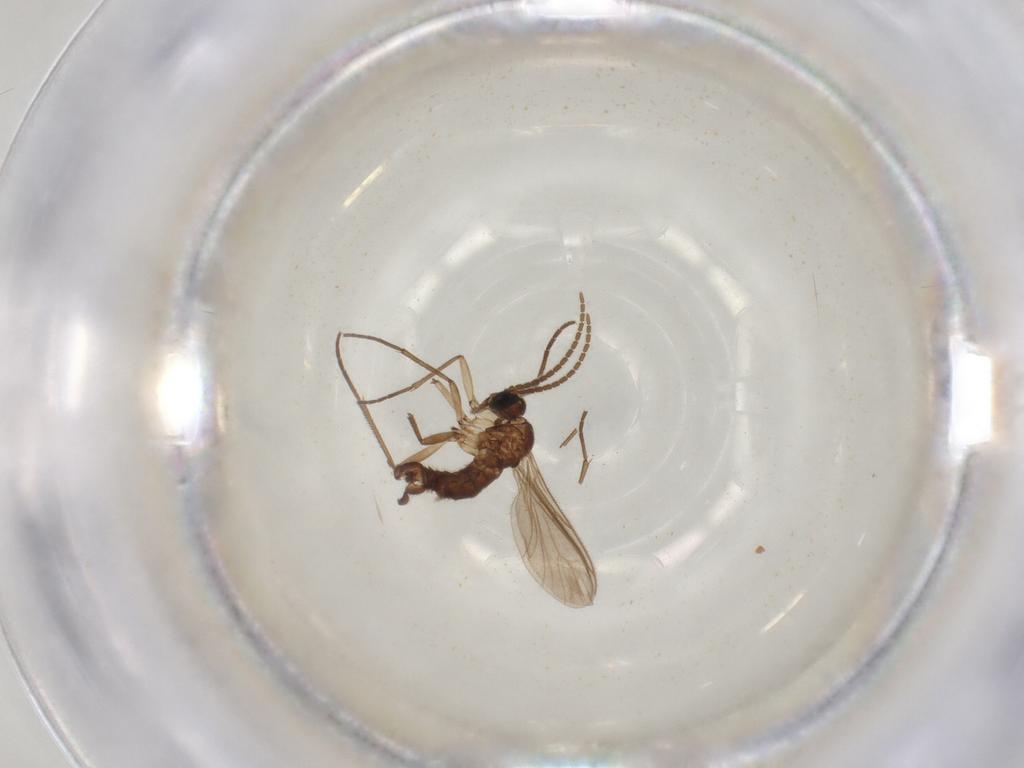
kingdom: Animalia
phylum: Arthropoda
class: Insecta
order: Diptera
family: Sciaridae
